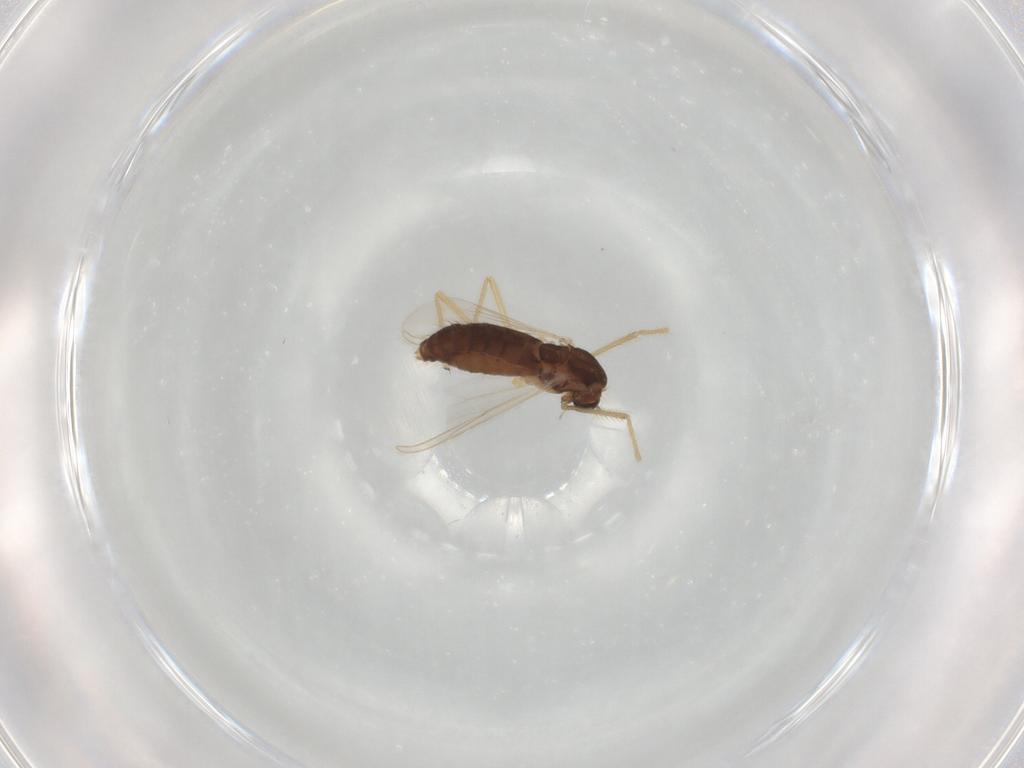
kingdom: Animalia
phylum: Arthropoda
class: Insecta
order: Diptera
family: Chironomidae
